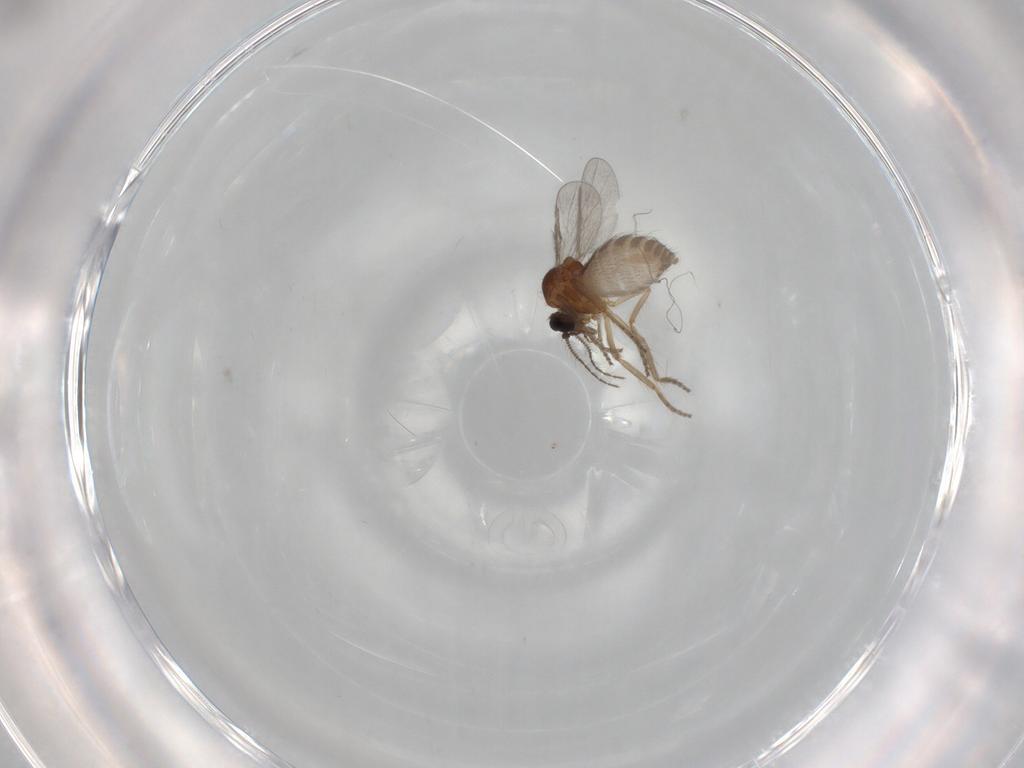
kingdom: Animalia
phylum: Arthropoda
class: Insecta
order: Diptera
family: Ceratopogonidae
